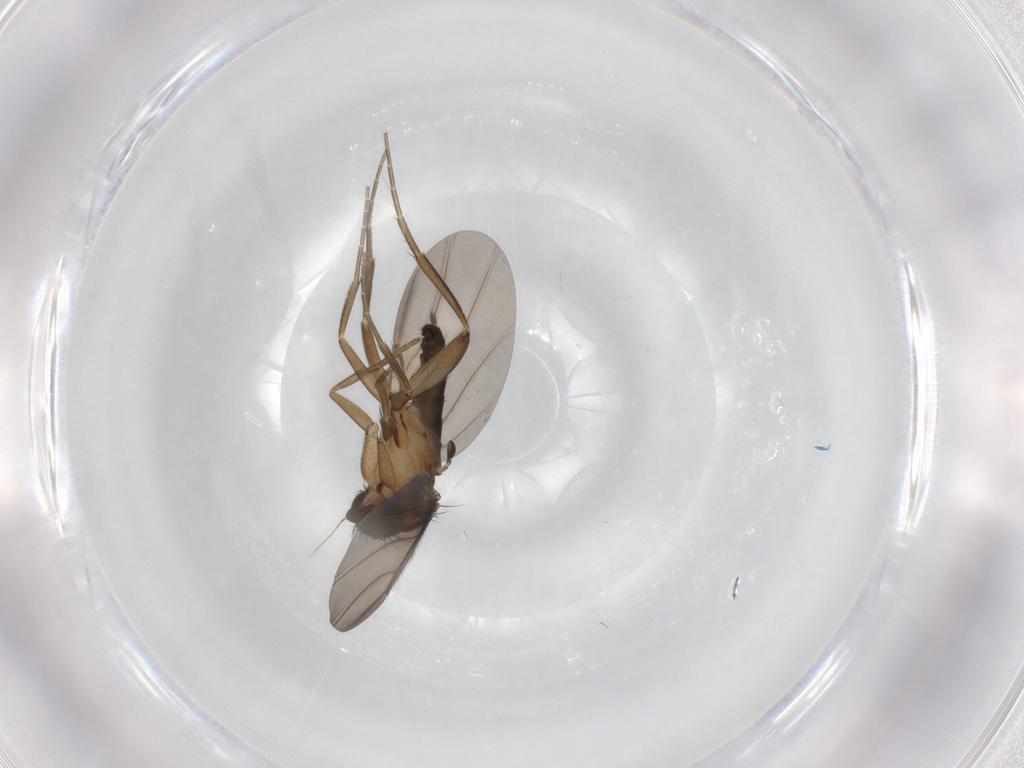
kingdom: Animalia
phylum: Arthropoda
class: Insecta
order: Diptera
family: Phoridae
